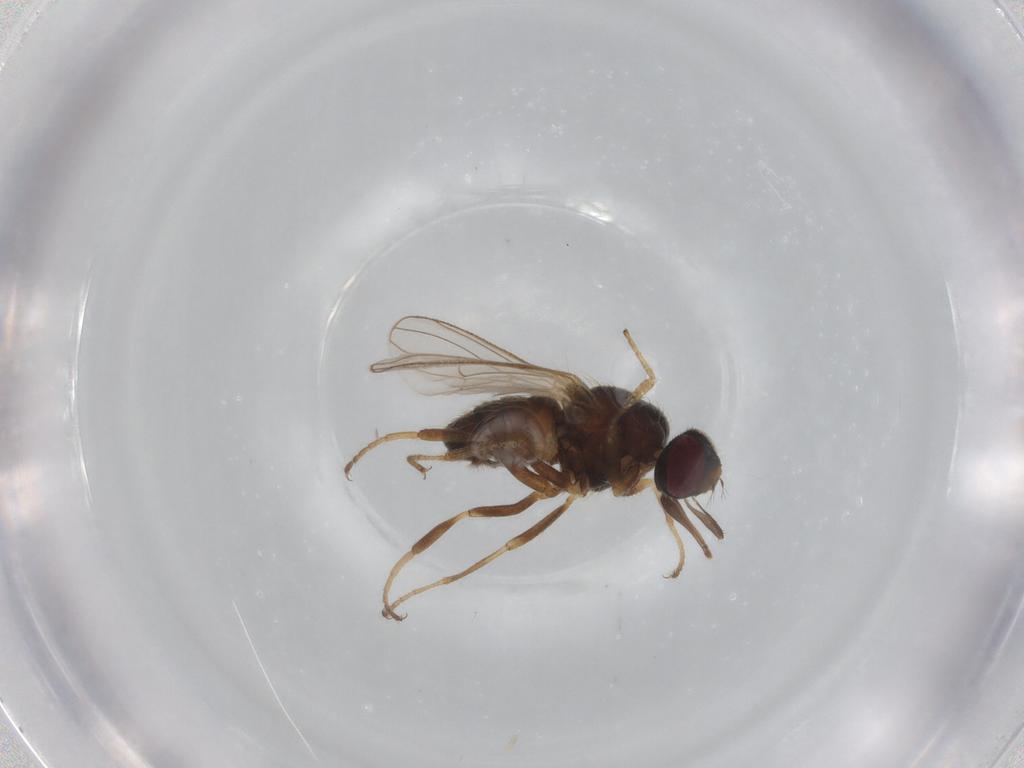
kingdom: Animalia
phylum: Arthropoda
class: Insecta
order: Diptera
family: Muscidae
